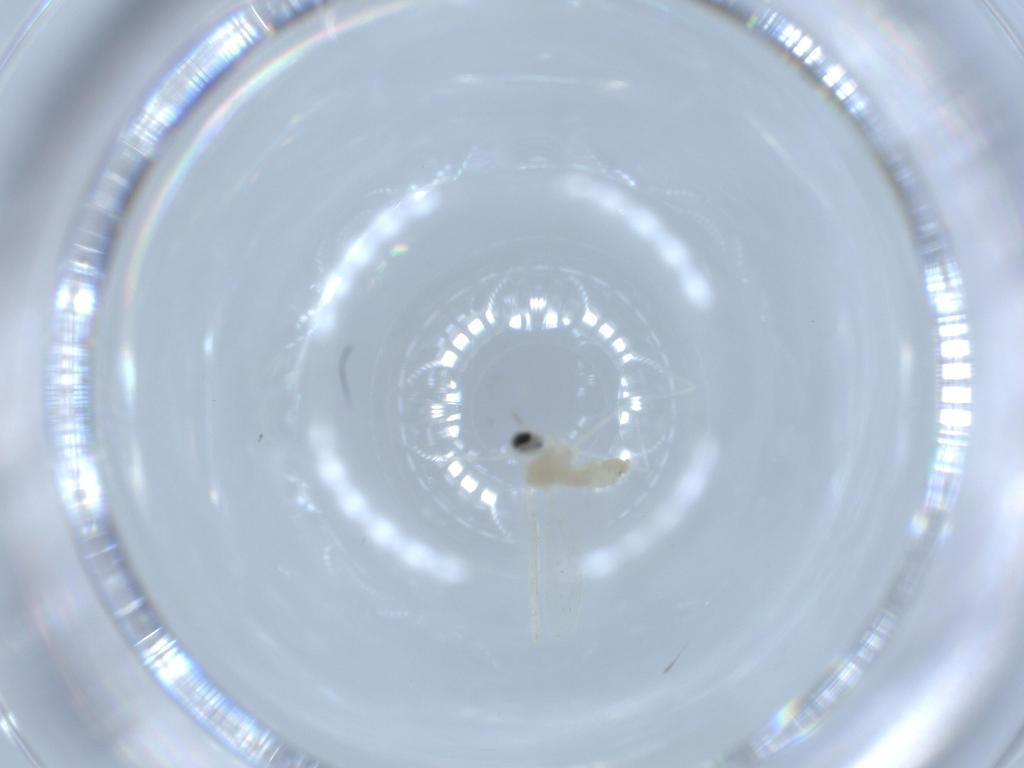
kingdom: Animalia
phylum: Arthropoda
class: Insecta
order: Diptera
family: Cecidomyiidae
